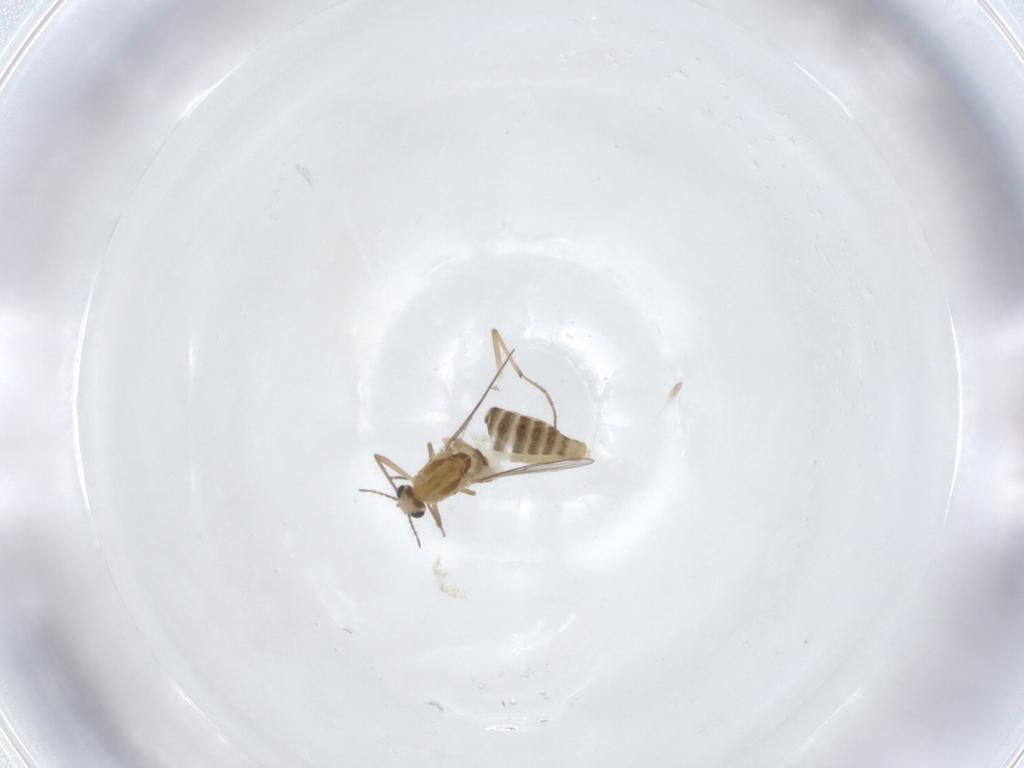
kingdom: Animalia
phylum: Arthropoda
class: Insecta
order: Diptera
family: Chironomidae
